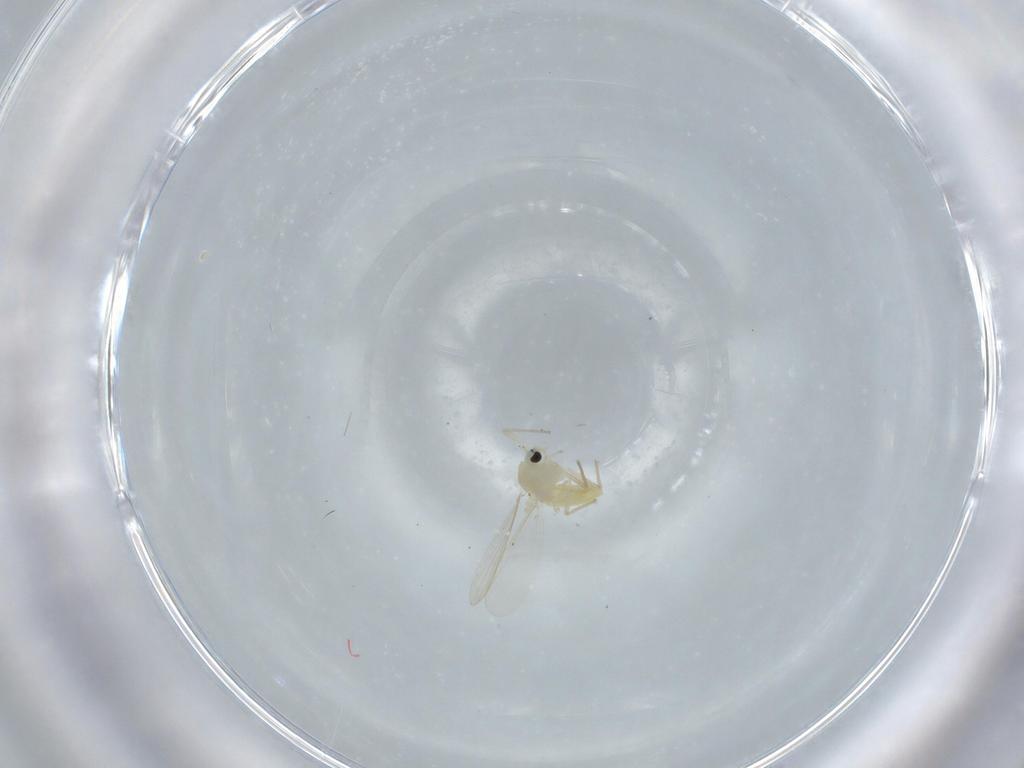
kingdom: Animalia
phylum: Arthropoda
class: Insecta
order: Diptera
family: Chironomidae
